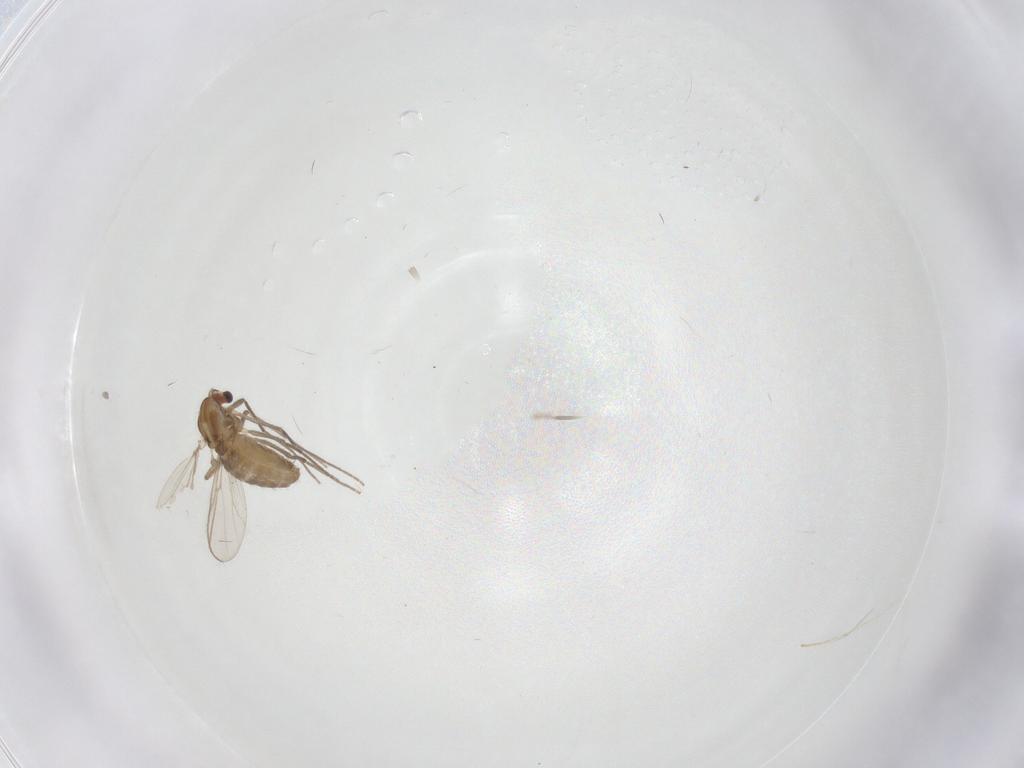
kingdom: Animalia
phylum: Arthropoda
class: Insecta
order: Diptera
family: Chironomidae
